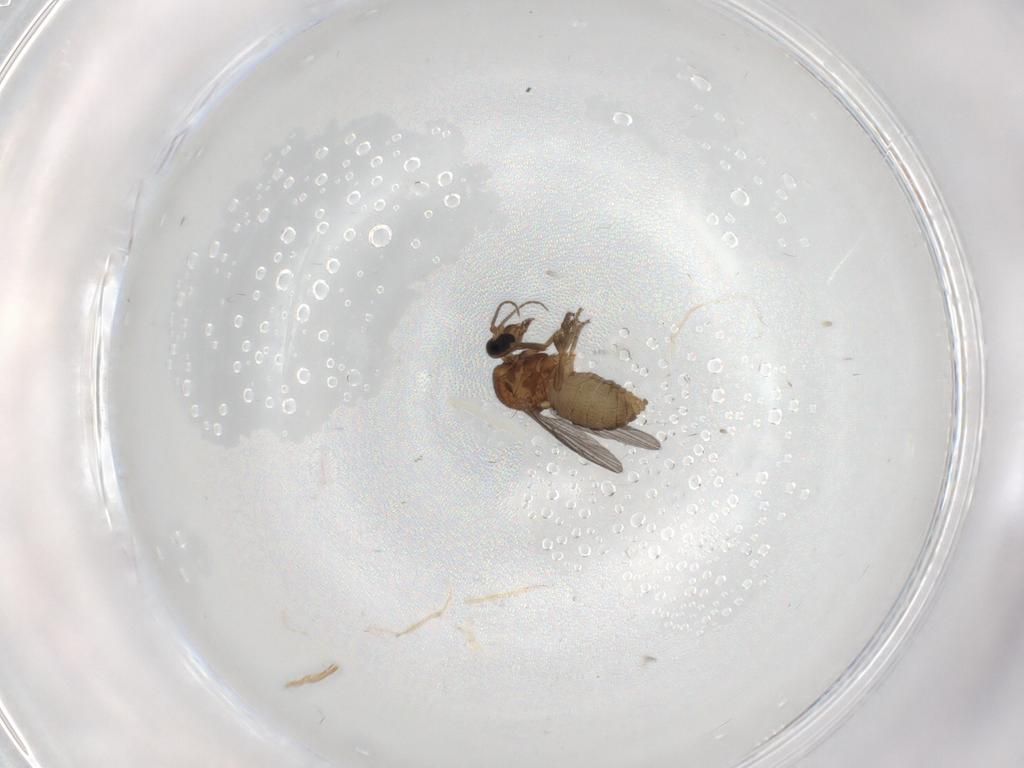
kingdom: Animalia
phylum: Arthropoda
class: Insecta
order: Diptera
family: Ceratopogonidae
